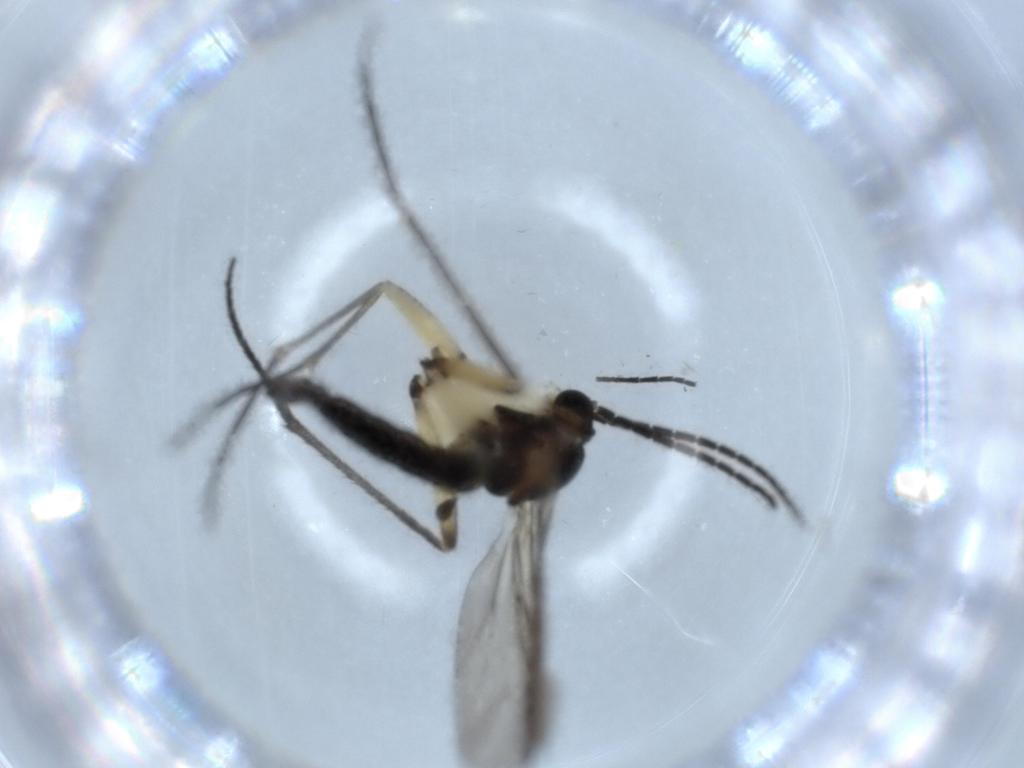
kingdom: Animalia
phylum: Arthropoda
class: Insecta
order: Diptera
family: Sciaridae
